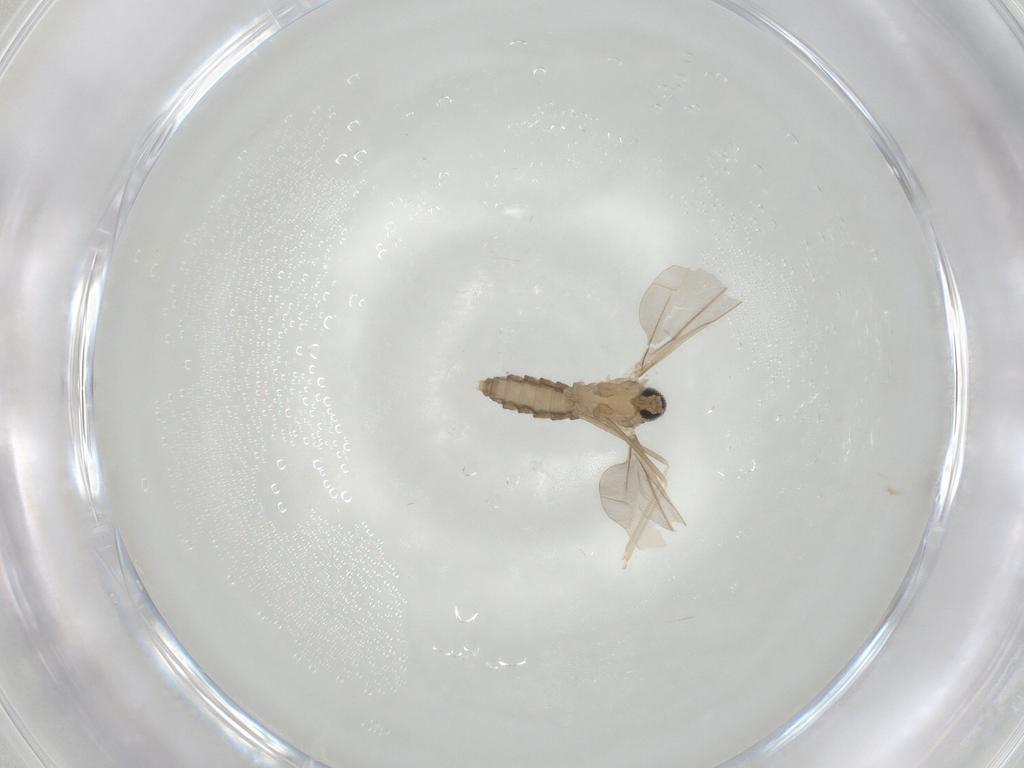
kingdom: Animalia
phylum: Arthropoda
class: Insecta
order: Diptera
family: Cecidomyiidae
